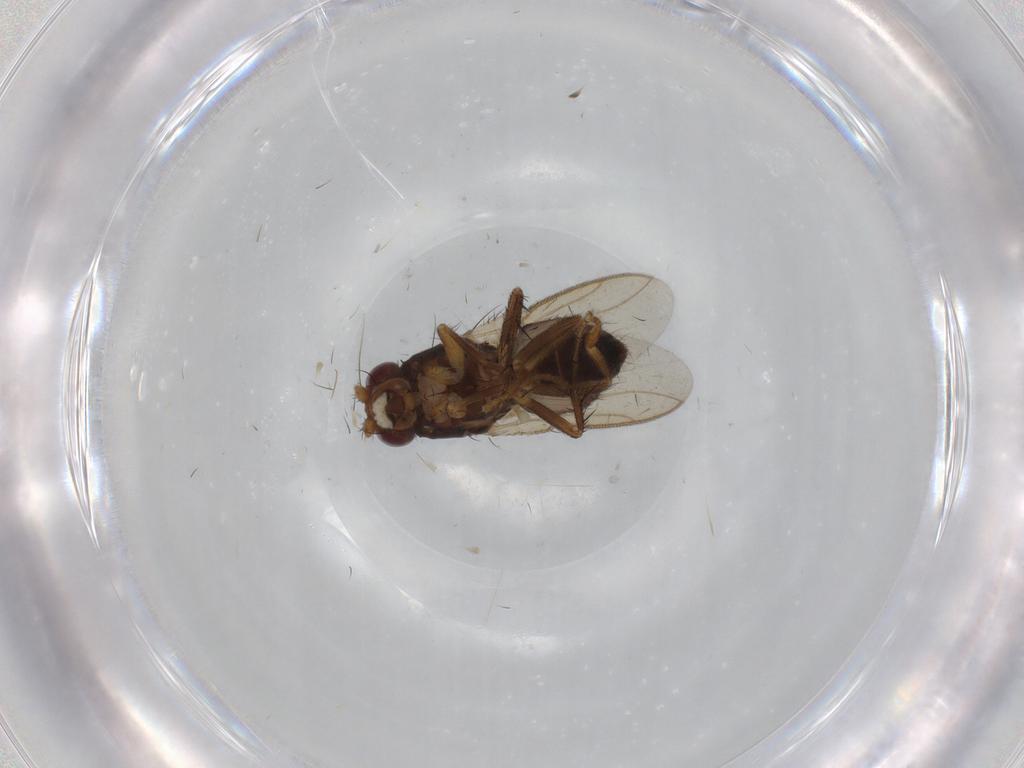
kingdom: Animalia
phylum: Arthropoda
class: Insecta
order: Diptera
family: Sphaeroceridae
